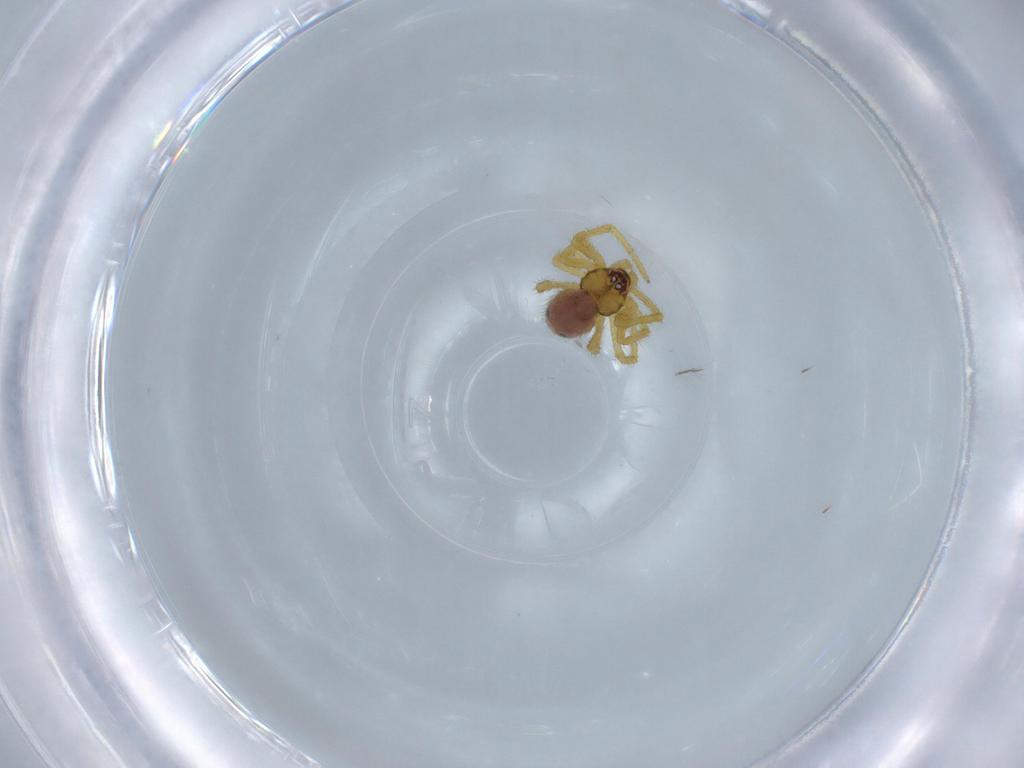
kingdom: Animalia
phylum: Arthropoda
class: Arachnida
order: Araneae
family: Theridiidae
